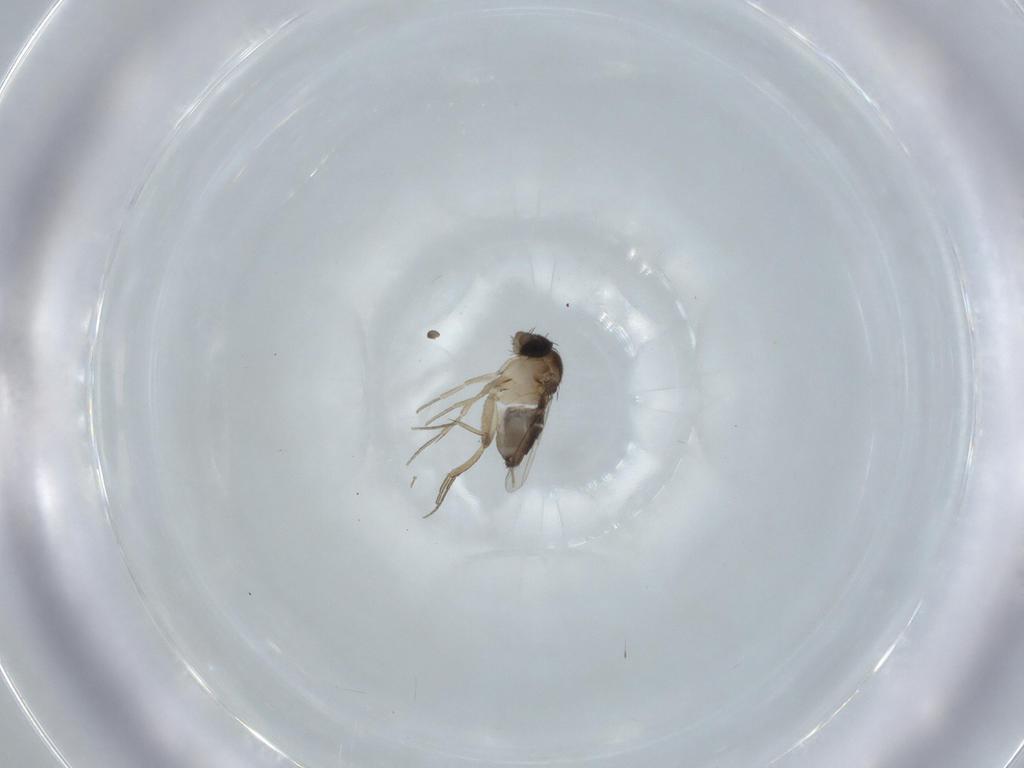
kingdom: Animalia
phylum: Arthropoda
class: Insecta
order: Diptera
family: Phoridae
